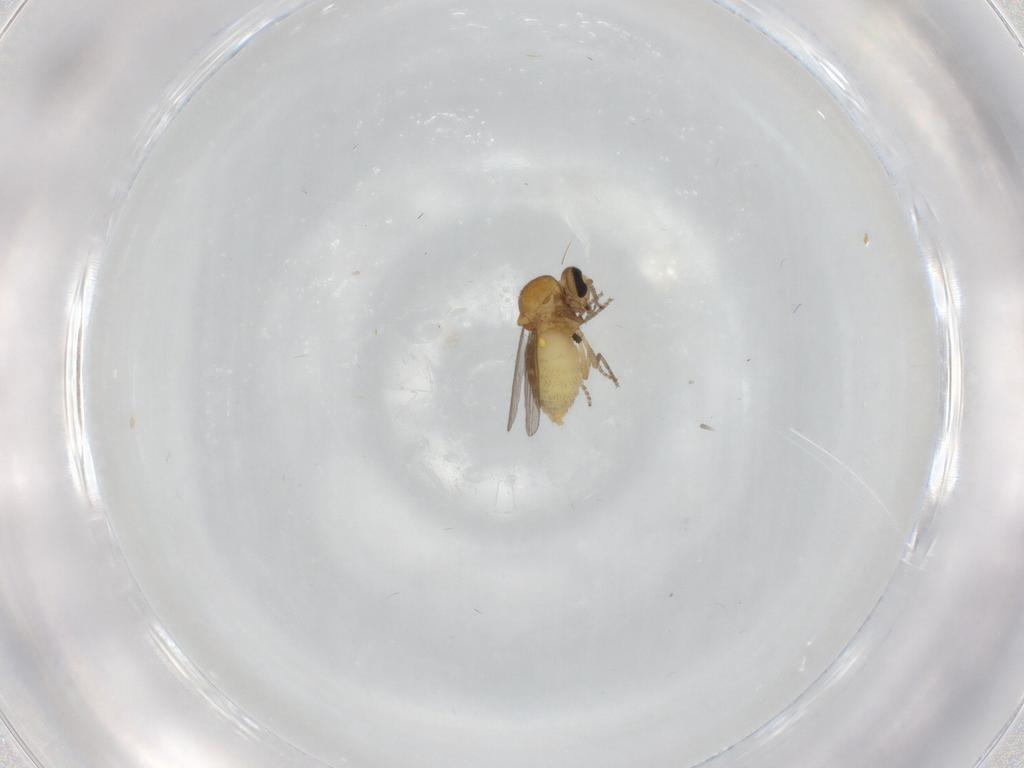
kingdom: Animalia
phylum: Arthropoda
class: Insecta
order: Diptera
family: Ceratopogonidae
